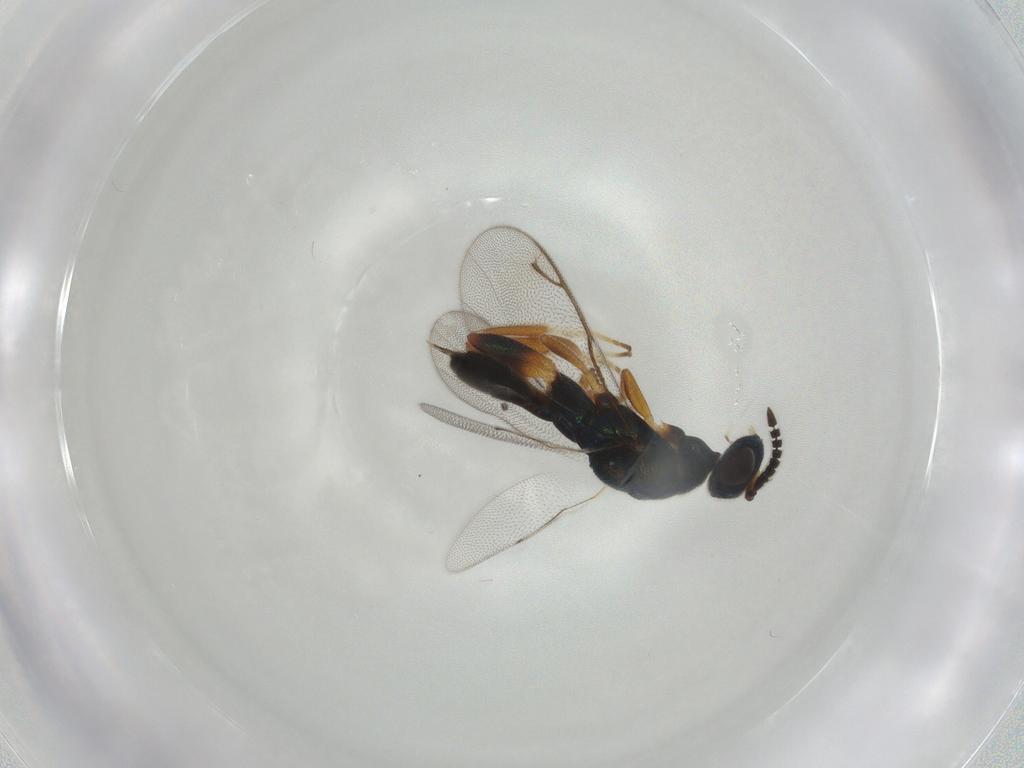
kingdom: Animalia
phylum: Arthropoda
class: Insecta
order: Hymenoptera
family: Cleonyminae
